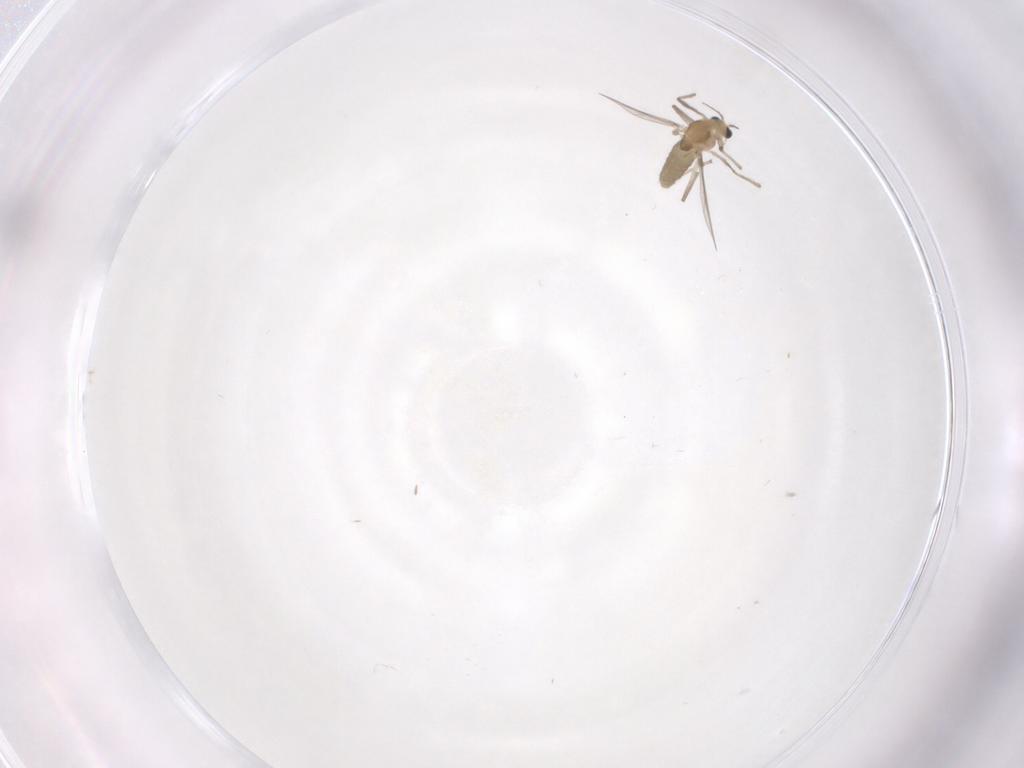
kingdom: Animalia
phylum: Arthropoda
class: Insecta
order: Diptera
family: Chironomidae
